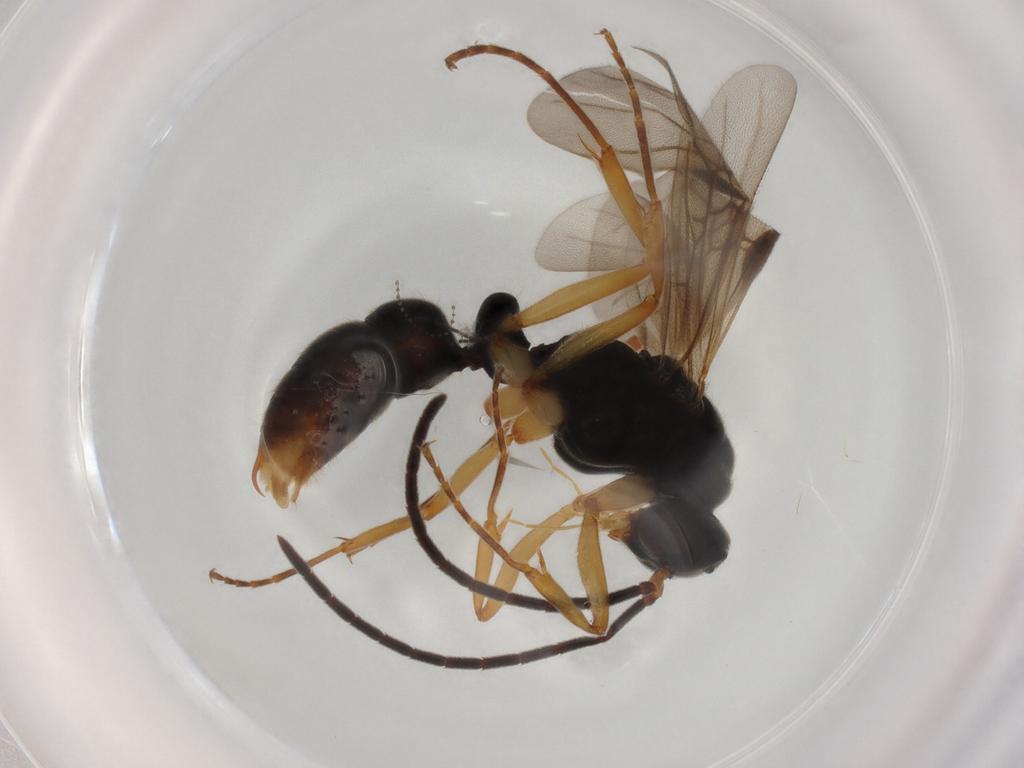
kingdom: Animalia
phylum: Arthropoda
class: Insecta
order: Hymenoptera
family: Formicidae
